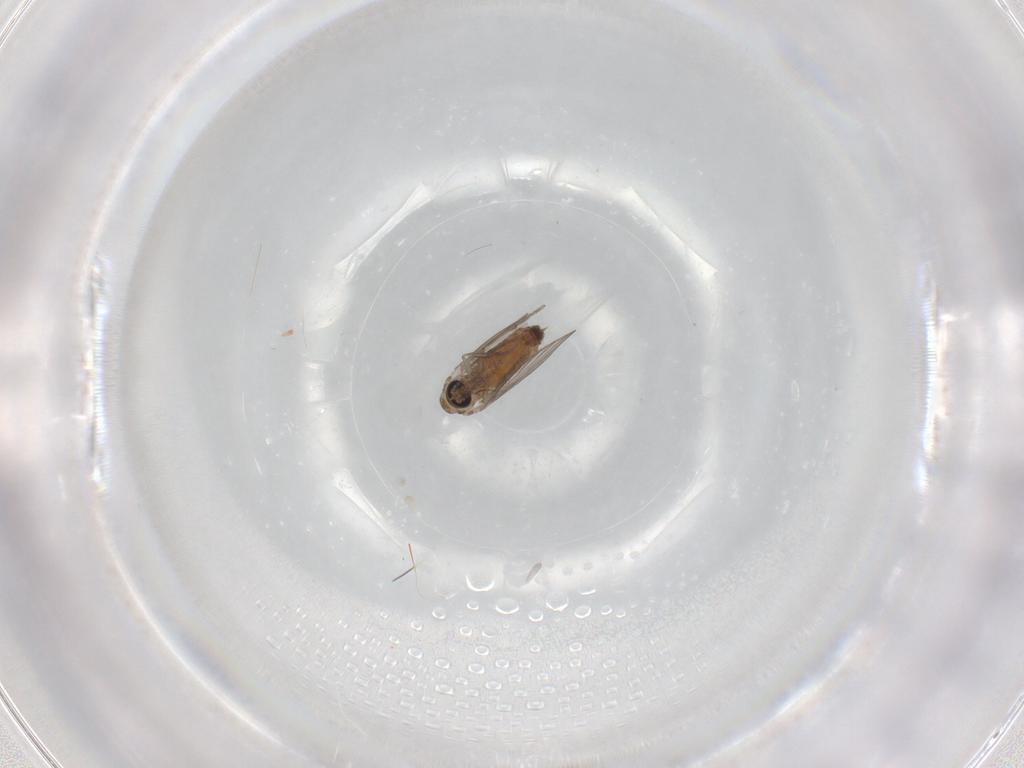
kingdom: Animalia
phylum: Arthropoda
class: Insecta
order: Diptera
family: Psychodidae
